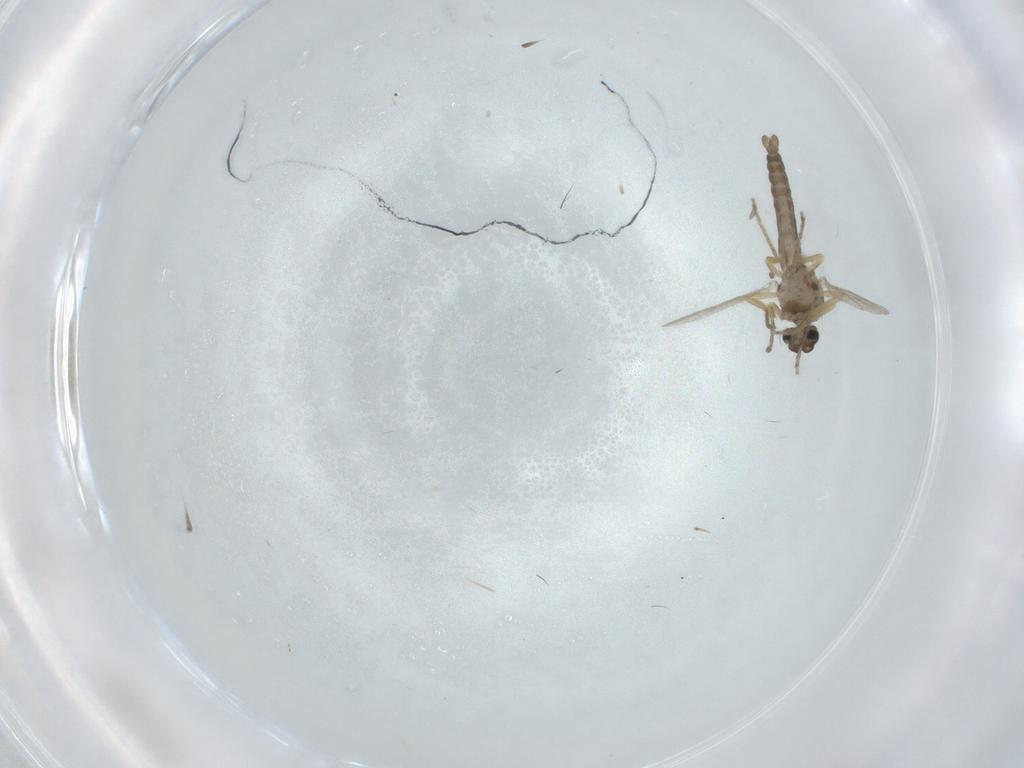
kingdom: Animalia
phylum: Arthropoda
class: Insecta
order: Diptera
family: Ceratopogonidae
